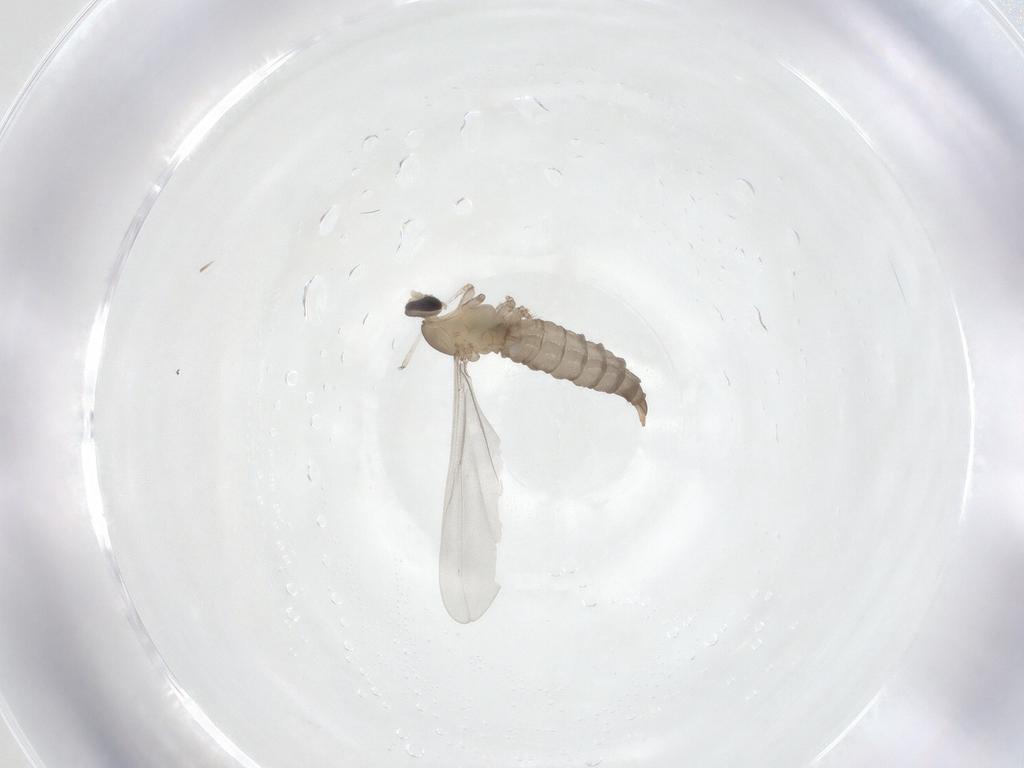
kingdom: Animalia
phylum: Arthropoda
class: Insecta
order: Diptera
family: Cecidomyiidae
